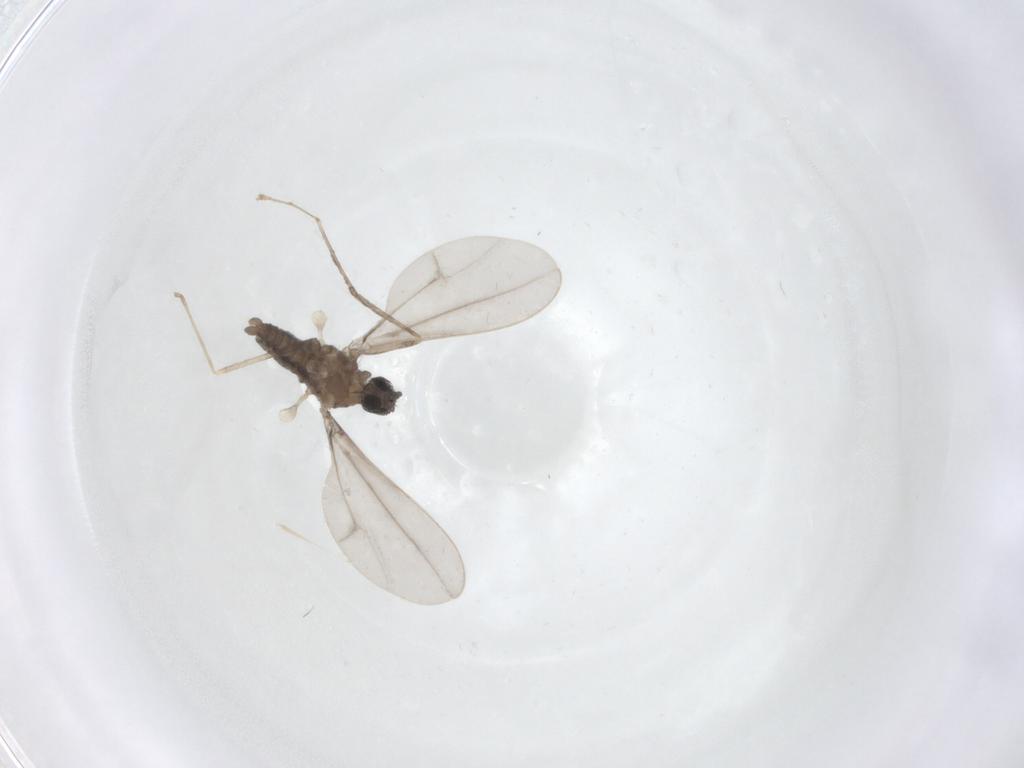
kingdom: Animalia
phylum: Arthropoda
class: Insecta
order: Diptera
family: Cecidomyiidae
